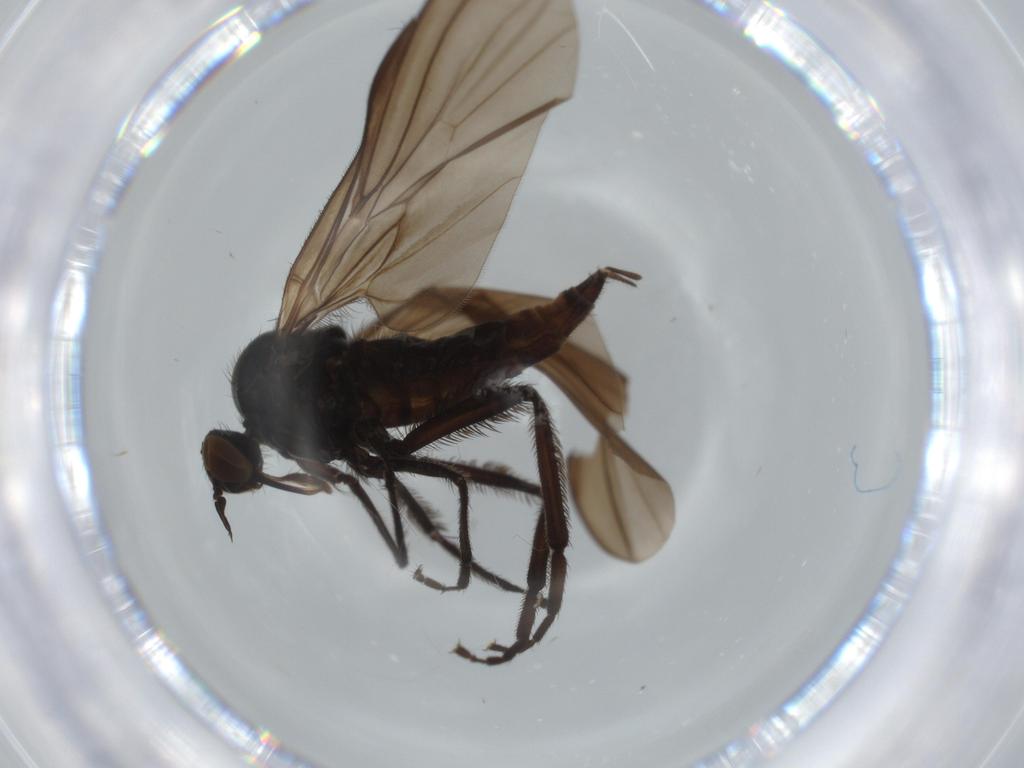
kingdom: Animalia
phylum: Arthropoda
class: Insecta
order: Diptera
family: Empididae
